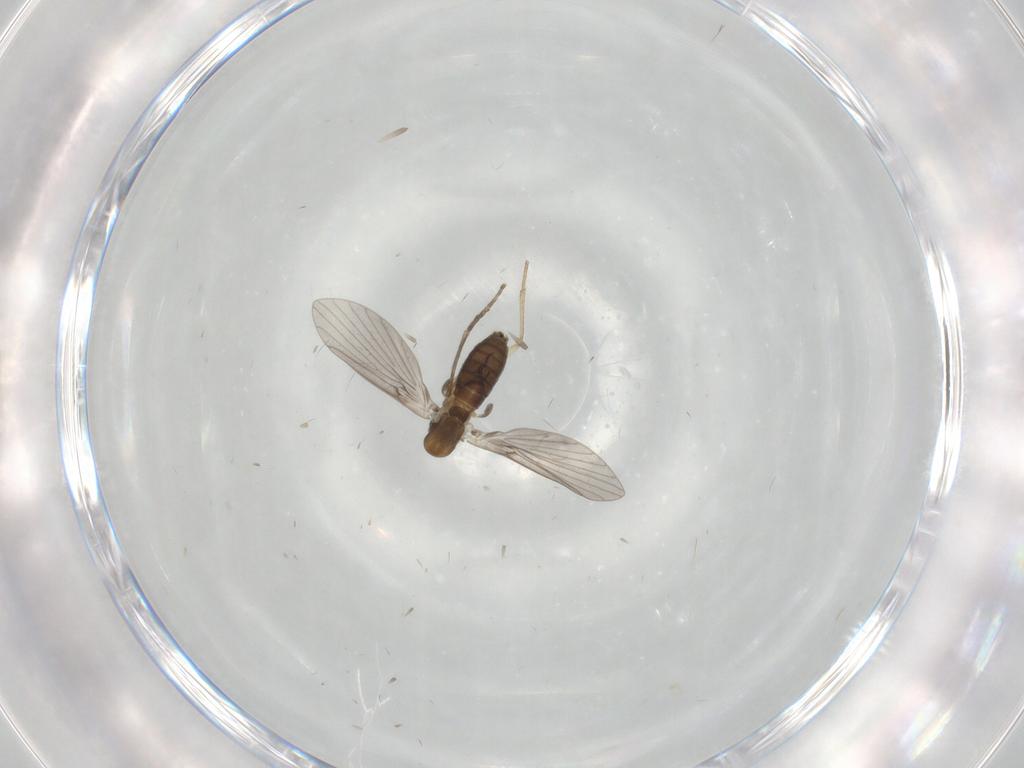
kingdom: Animalia
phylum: Arthropoda
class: Insecta
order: Diptera
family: Psychodidae
